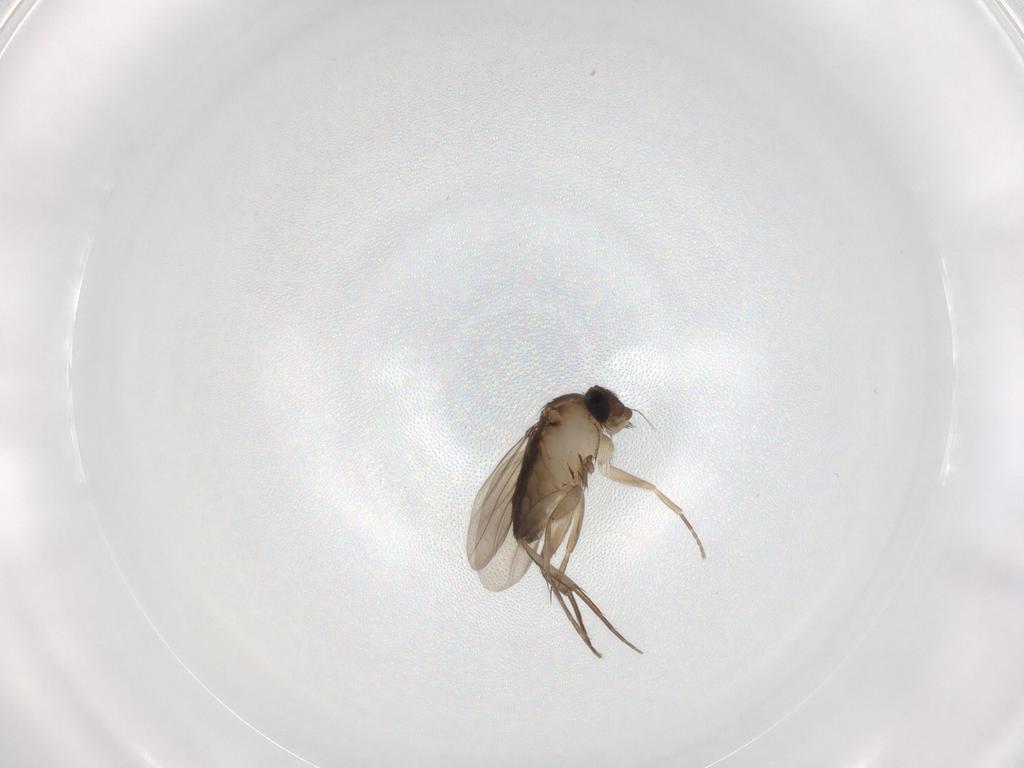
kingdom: Animalia
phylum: Arthropoda
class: Insecta
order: Diptera
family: Phoridae
